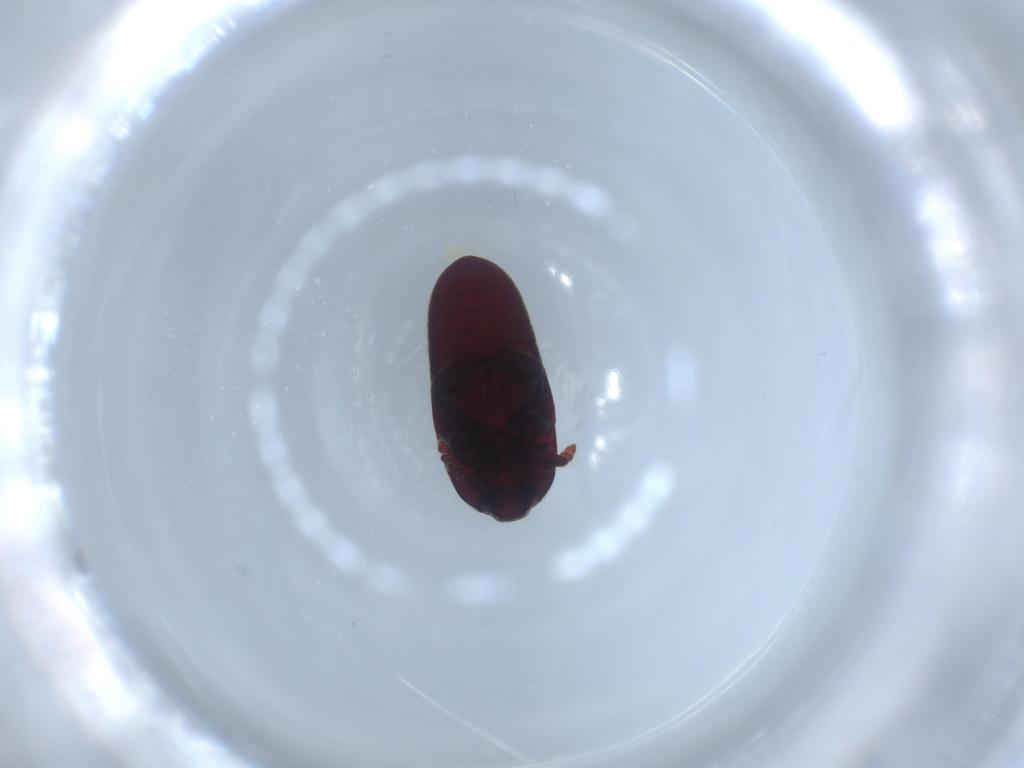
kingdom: Animalia
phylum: Arthropoda
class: Insecta
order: Coleoptera
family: Throscidae
